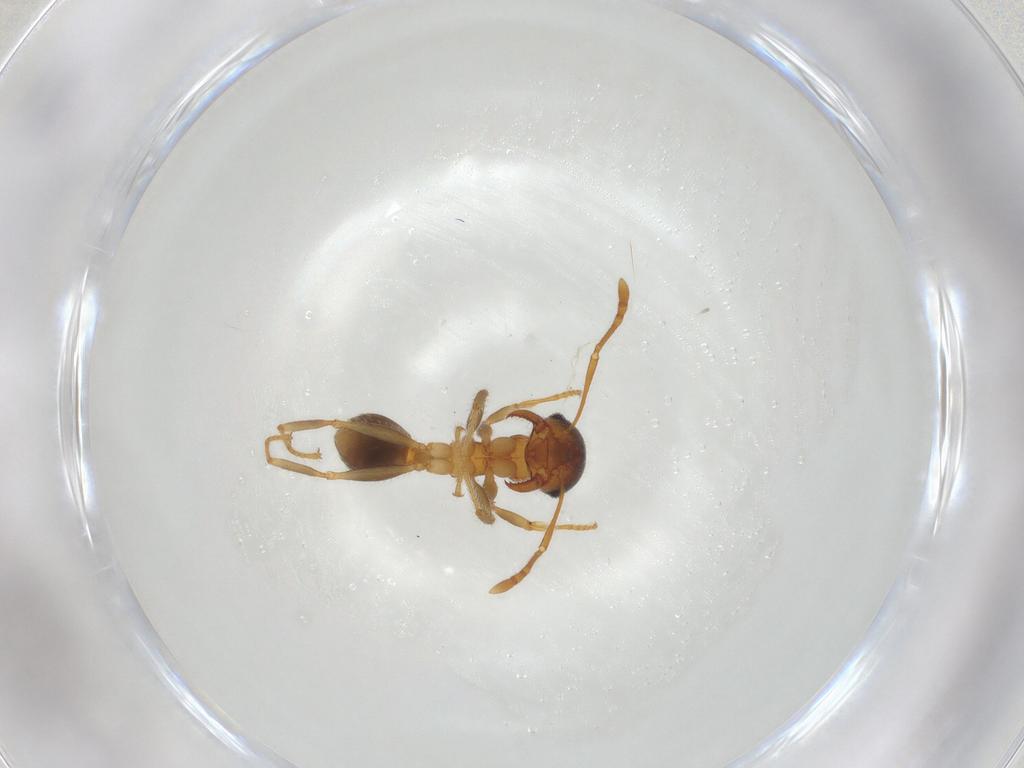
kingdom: Animalia
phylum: Arthropoda
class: Insecta
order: Hymenoptera
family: Formicidae
